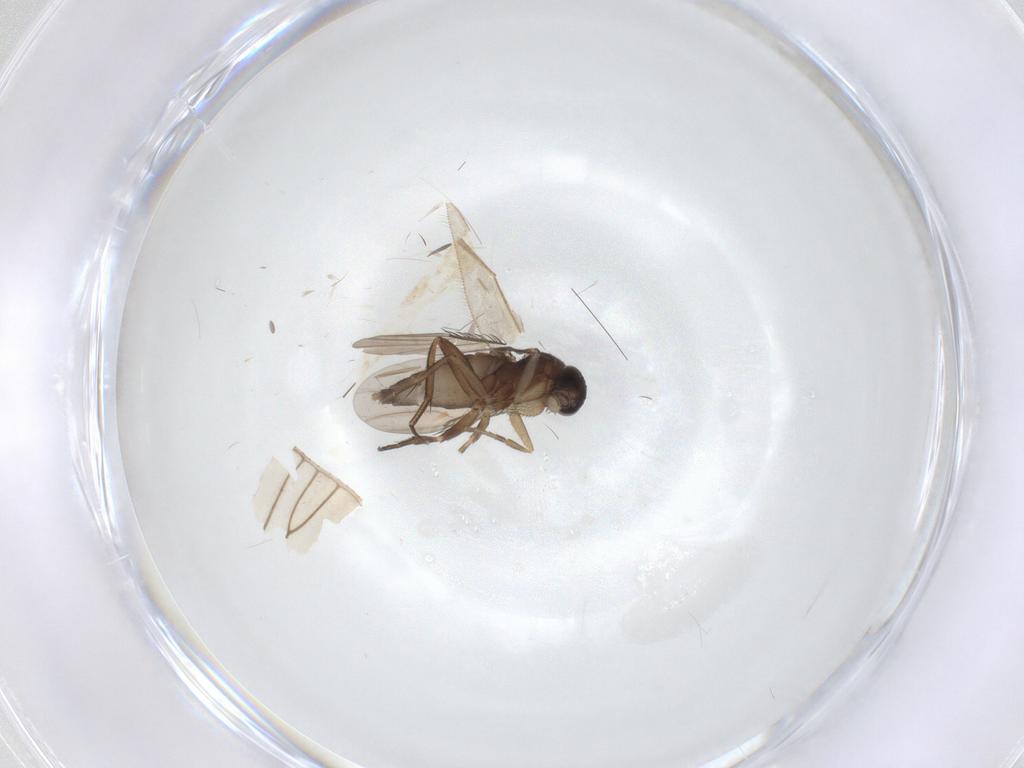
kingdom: Animalia
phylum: Arthropoda
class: Insecta
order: Diptera
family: Phoridae
